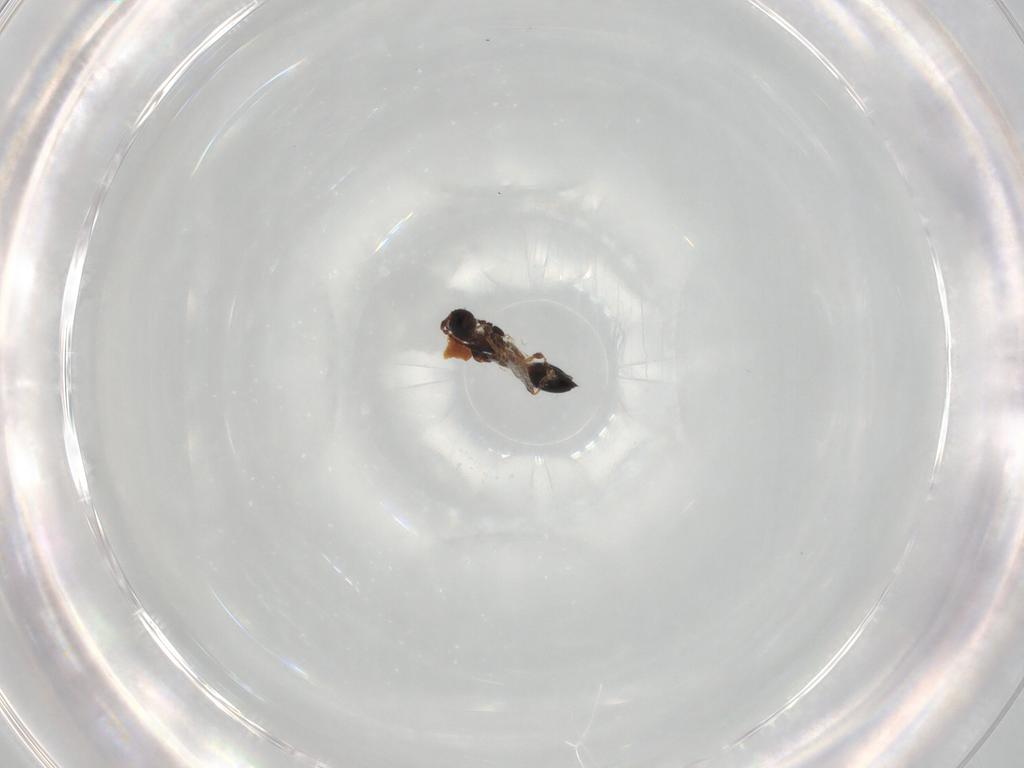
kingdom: Animalia
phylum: Arthropoda
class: Insecta
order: Hymenoptera
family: Diapriidae
